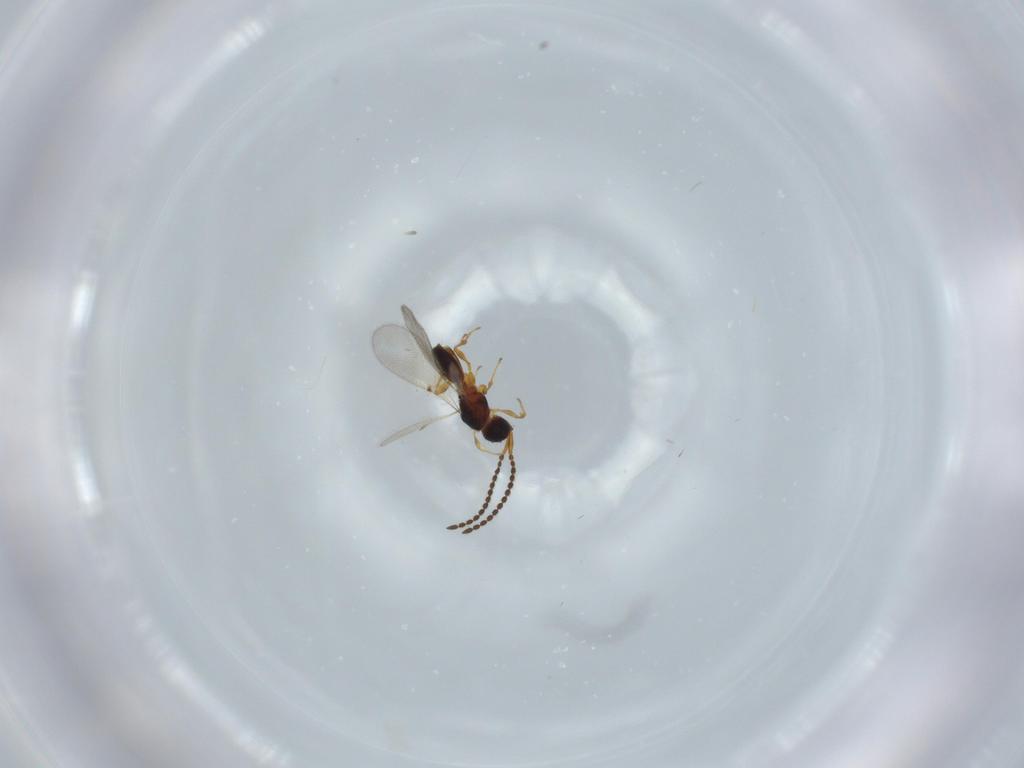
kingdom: Animalia
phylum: Arthropoda
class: Insecta
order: Hymenoptera
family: Diapriidae
